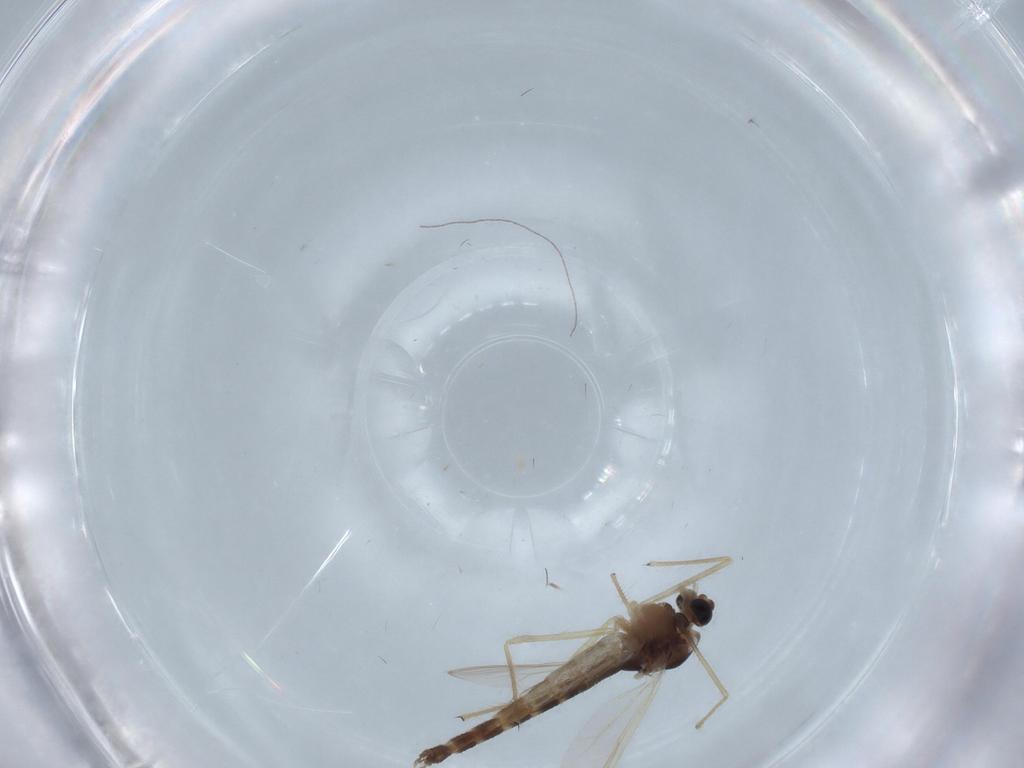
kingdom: Animalia
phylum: Arthropoda
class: Insecta
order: Diptera
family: Chironomidae
